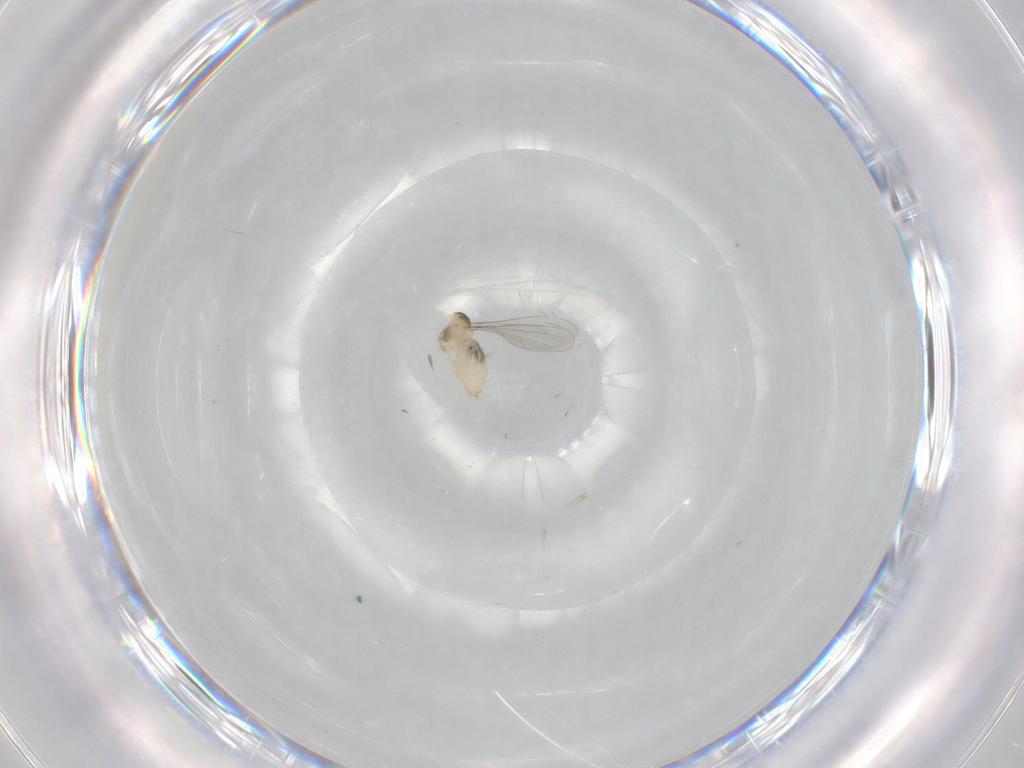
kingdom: Animalia
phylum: Arthropoda
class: Insecta
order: Diptera
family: Cecidomyiidae
